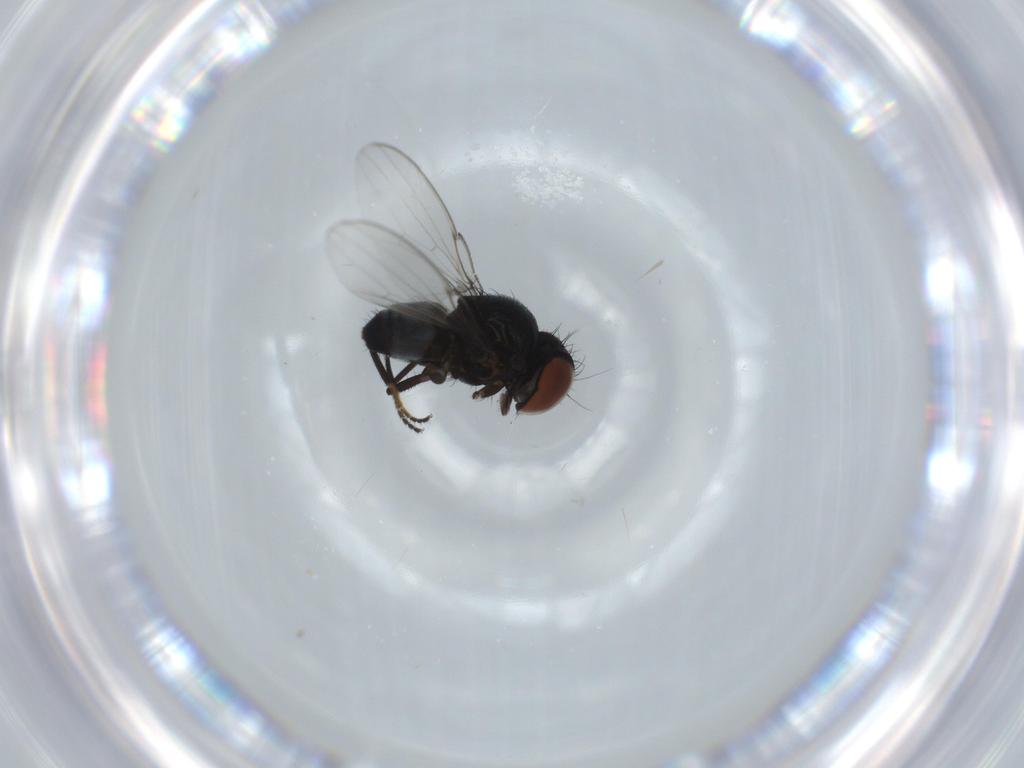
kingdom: Animalia
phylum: Arthropoda
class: Insecta
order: Diptera
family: Milichiidae
